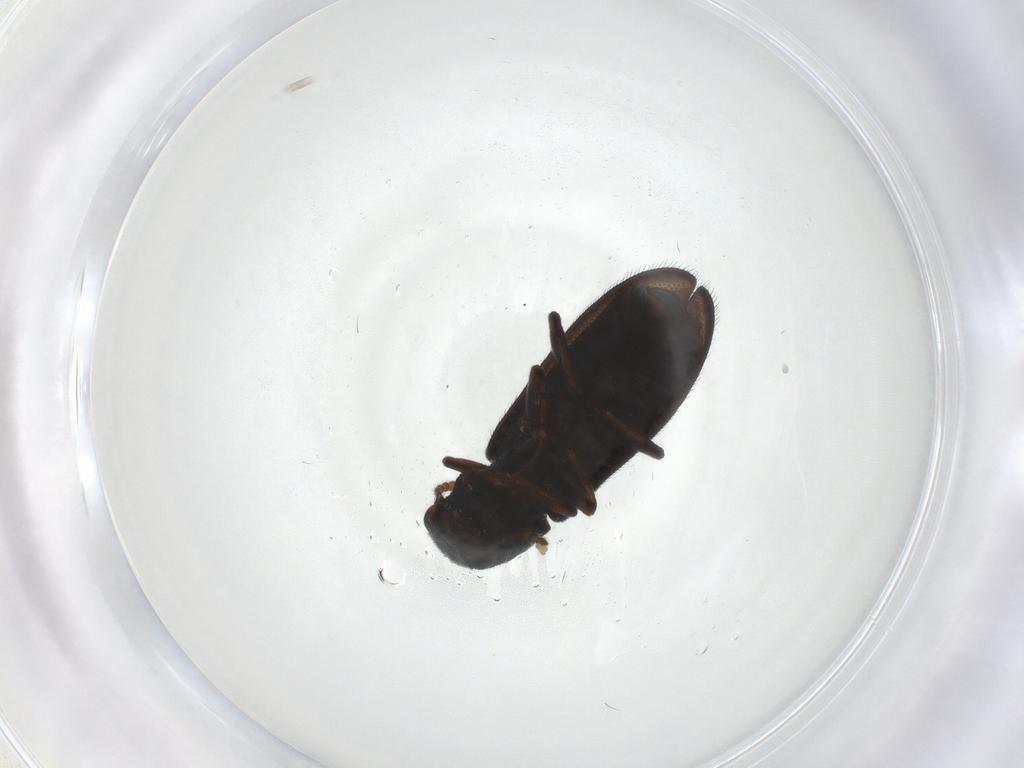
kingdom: Animalia
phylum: Arthropoda
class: Insecta
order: Coleoptera
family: Melyridae
